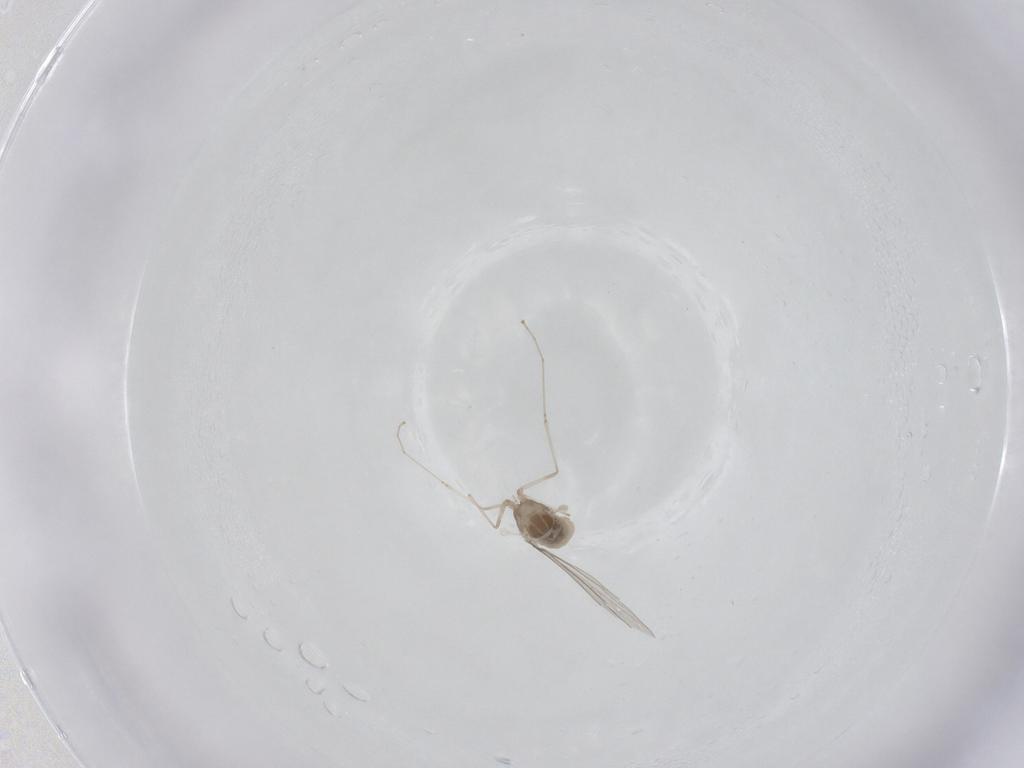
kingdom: Animalia
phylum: Arthropoda
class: Insecta
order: Diptera
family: Cecidomyiidae
